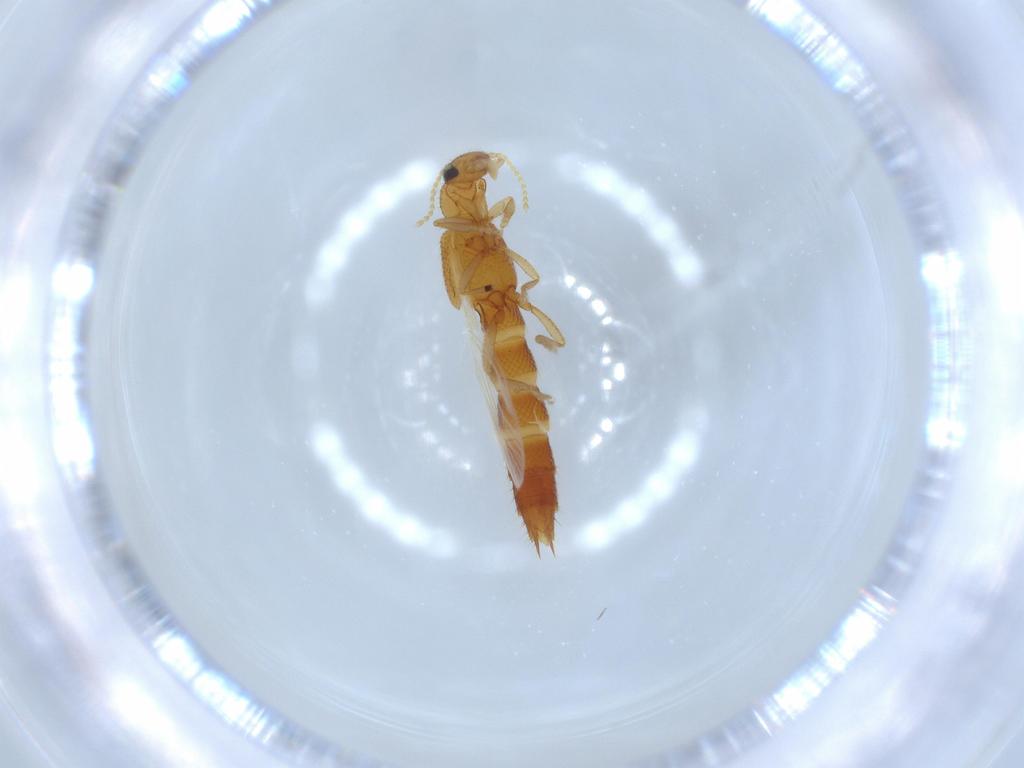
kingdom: Animalia
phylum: Arthropoda
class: Insecta
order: Coleoptera
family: Chrysomelidae
